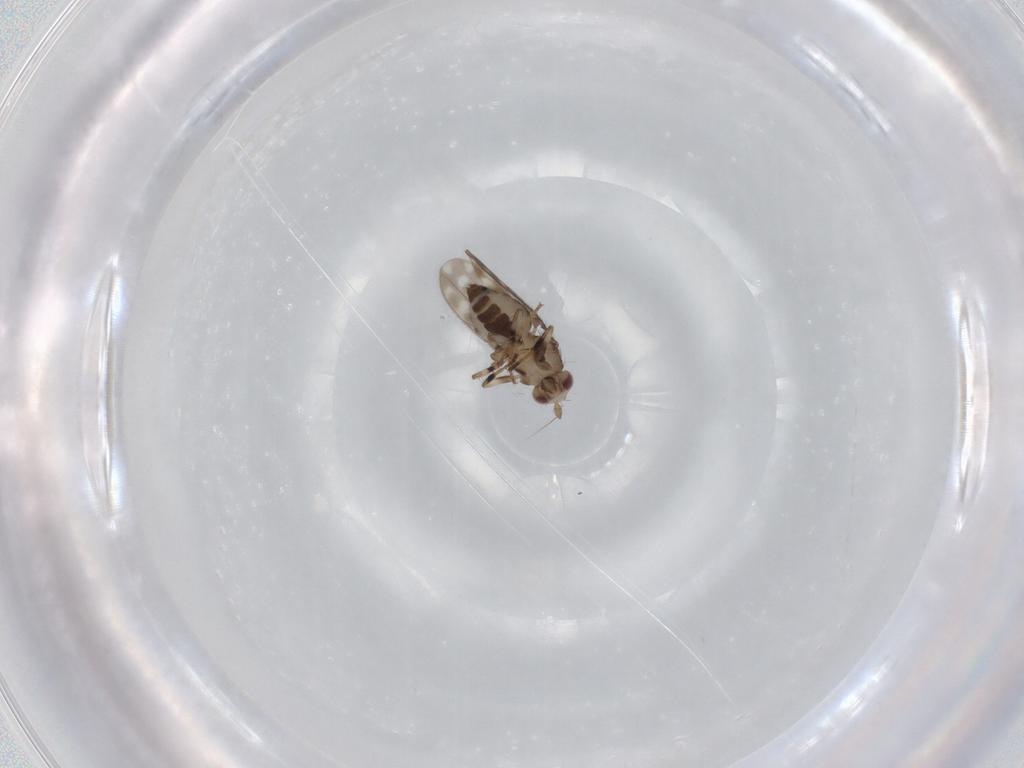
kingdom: Animalia
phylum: Arthropoda
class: Insecta
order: Diptera
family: Sphaeroceridae
